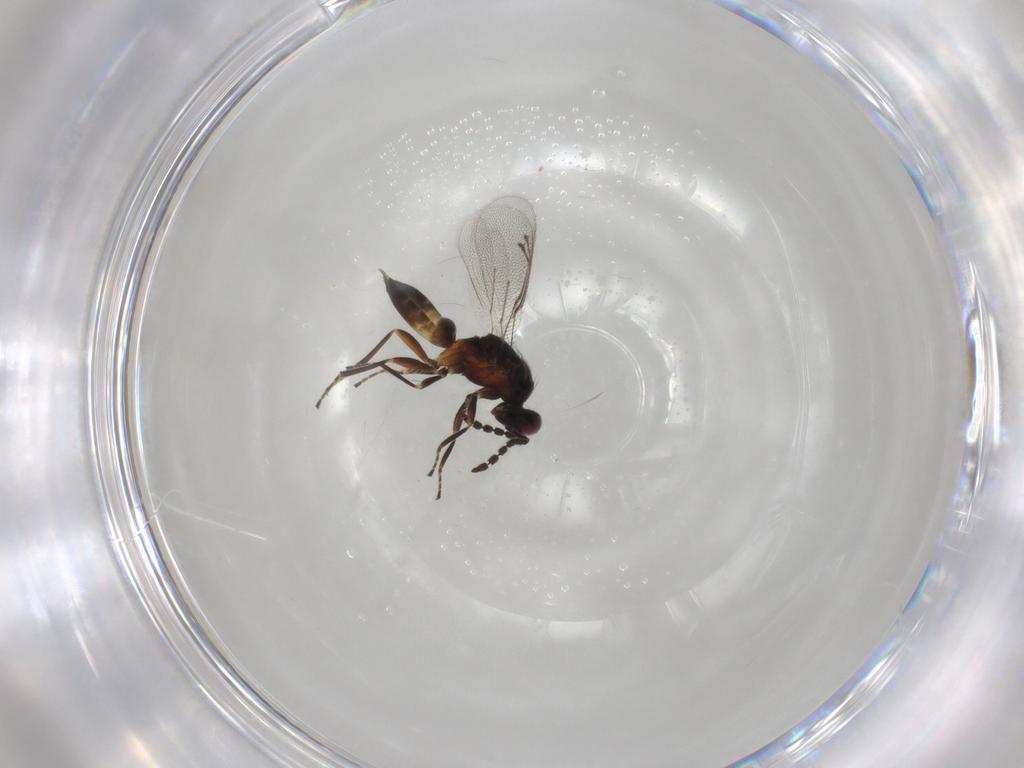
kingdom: Animalia
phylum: Arthropoda
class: Insecta
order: Hymenoptera
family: Eulophidae
